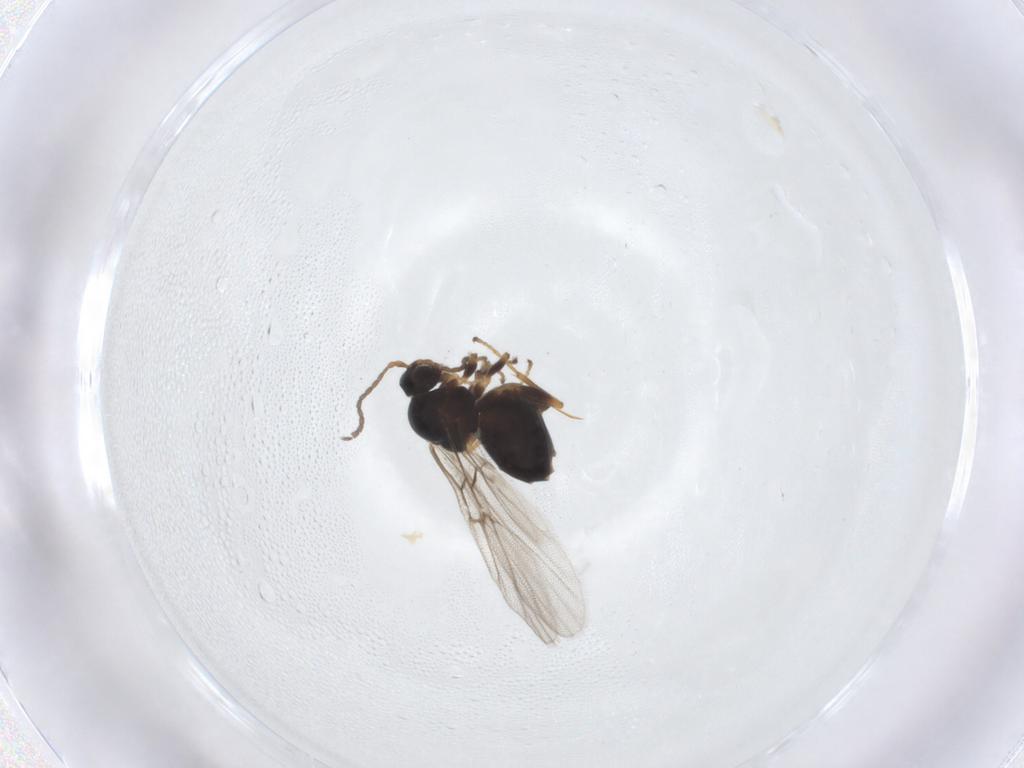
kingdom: Animalia
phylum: Arthropoda
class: Insecta
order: Hymenoptera
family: Cynipidae
